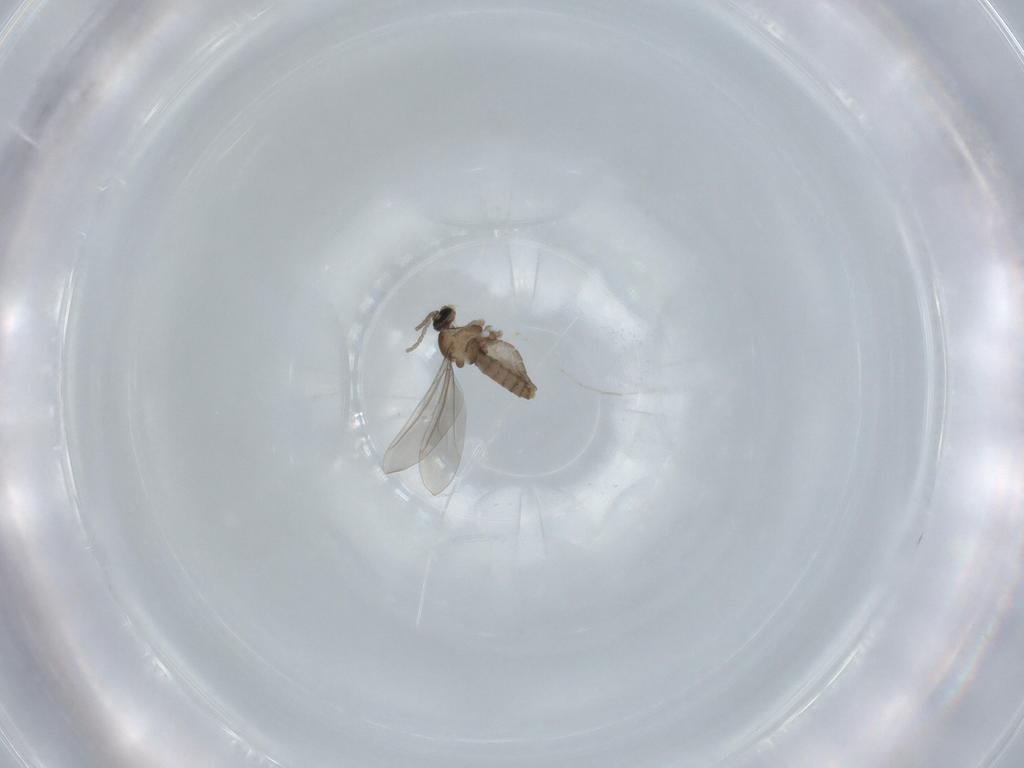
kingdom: Animalia
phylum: Arthropoda
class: Insecta
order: Diptera
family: Cecidomyiidae
